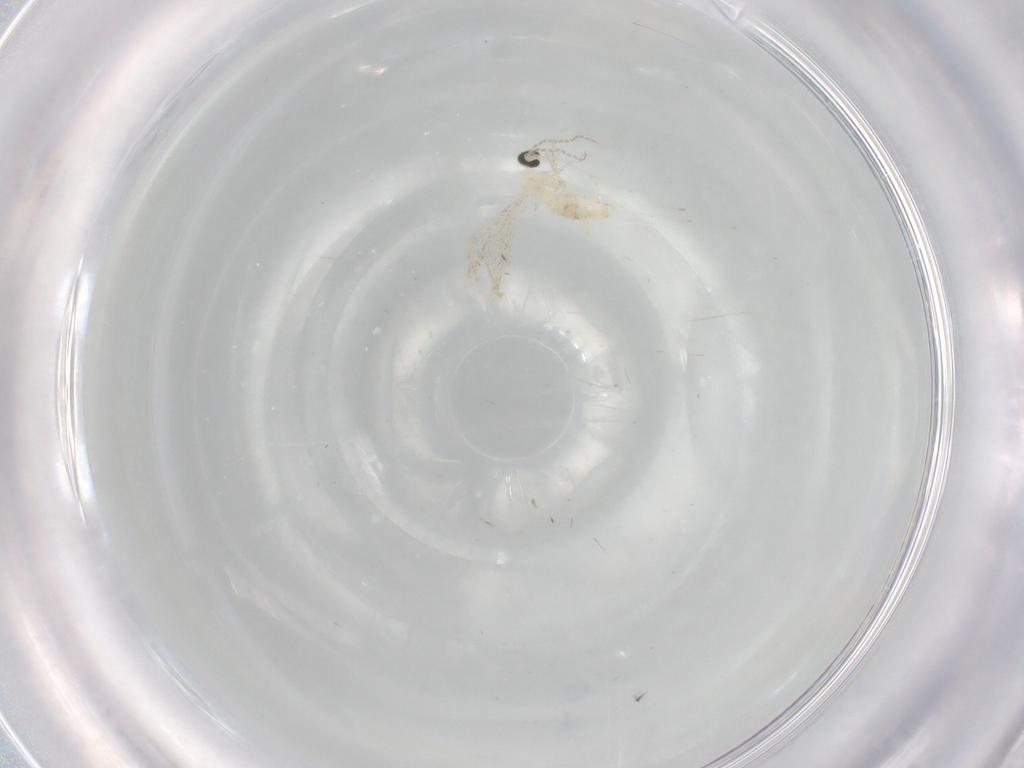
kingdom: Animalia
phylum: Arthropoda
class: Insecta
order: Diptera
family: Cecidomyiidae
